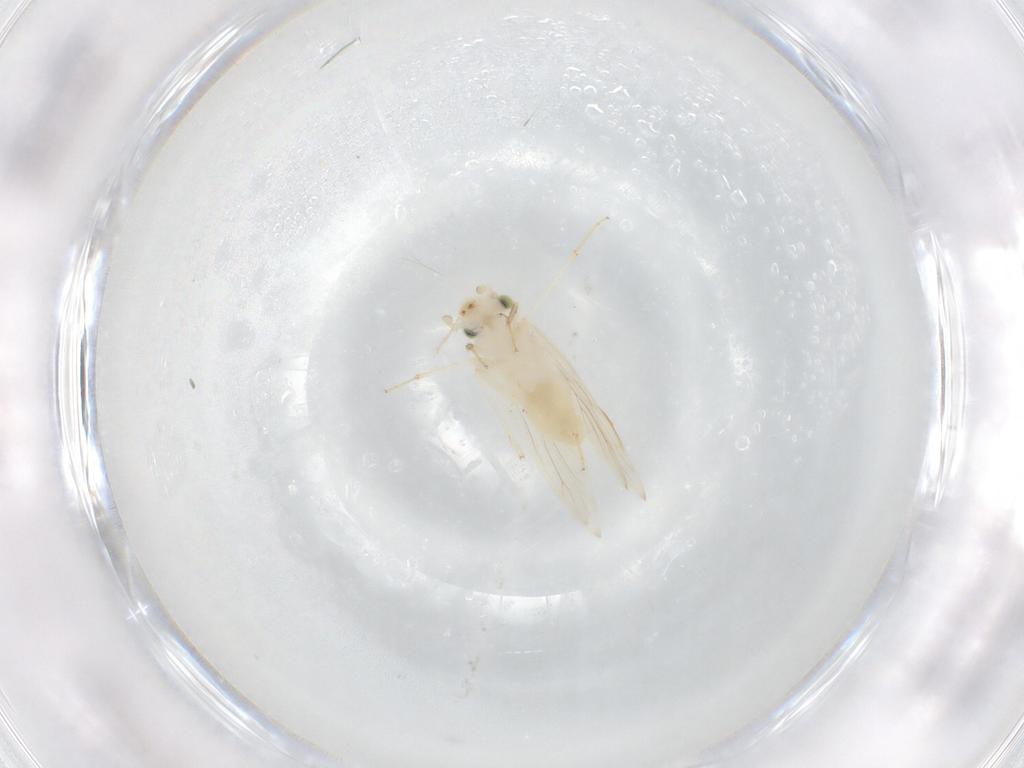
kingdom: Animalia
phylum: Arthropoda
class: Insecta
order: Psocodea
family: Lepidopsocidae
